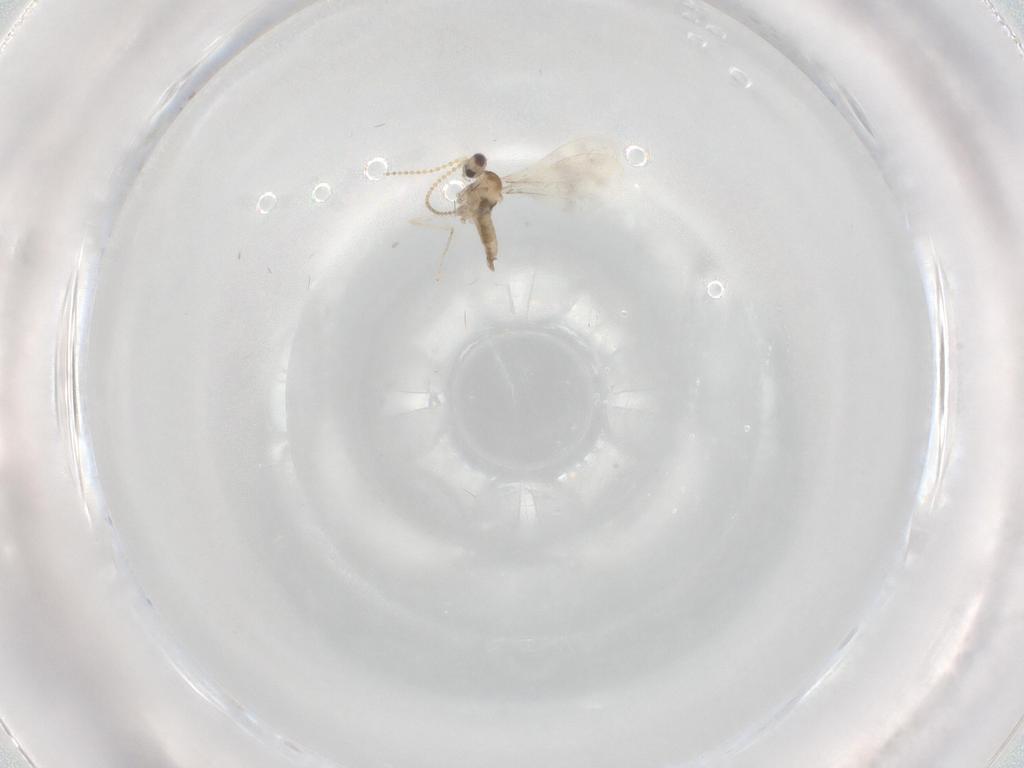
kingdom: Animalia
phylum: Arthropoda
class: Insecta
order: Diptera
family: Cecidomyiidae
